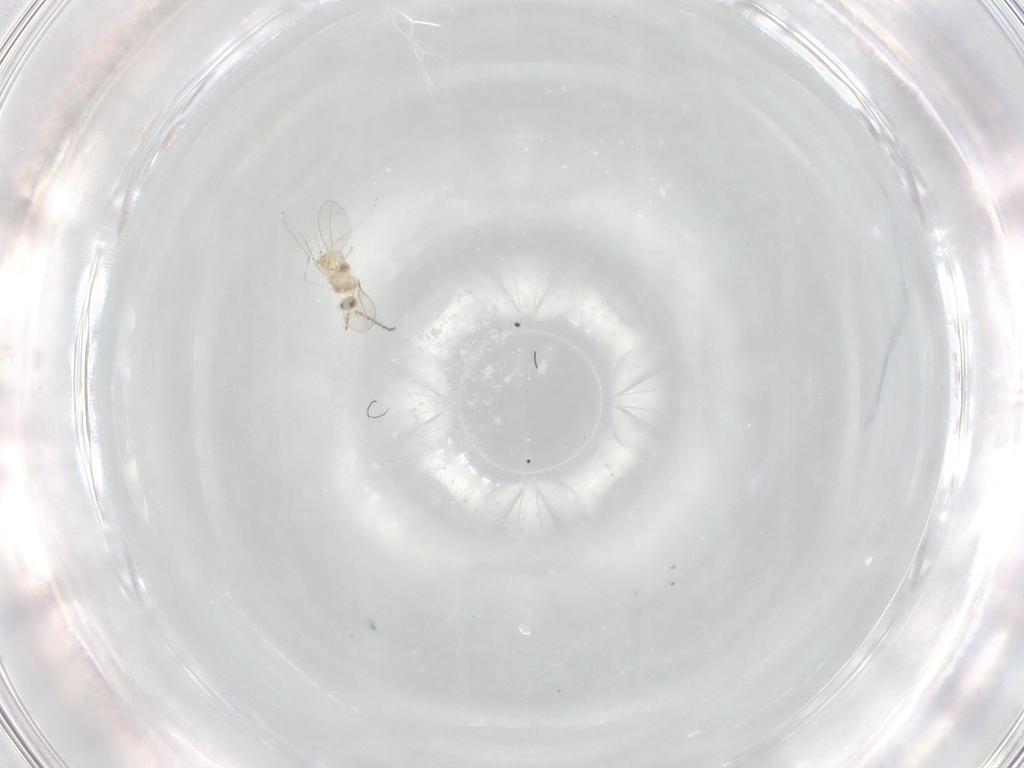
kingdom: Animalia
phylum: Arthropoda
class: Insecta
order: Diptera
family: Cecidomyiidae
